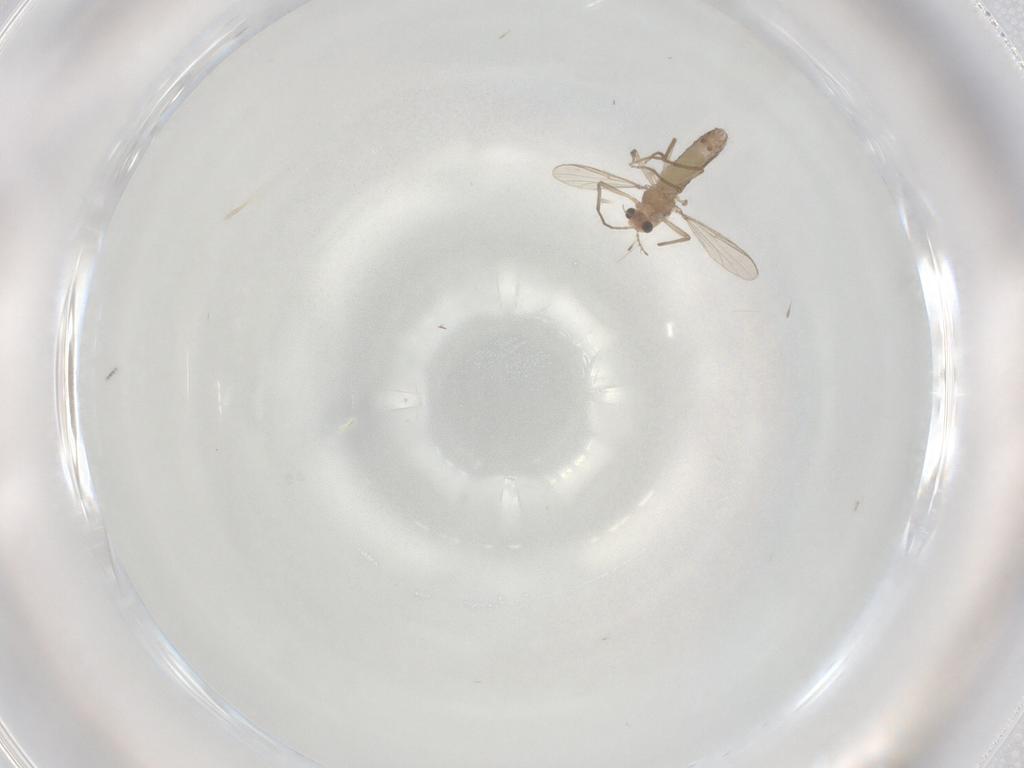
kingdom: Animalia
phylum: Arthropoda
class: Insecta
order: Diptera
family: Chironomidae
